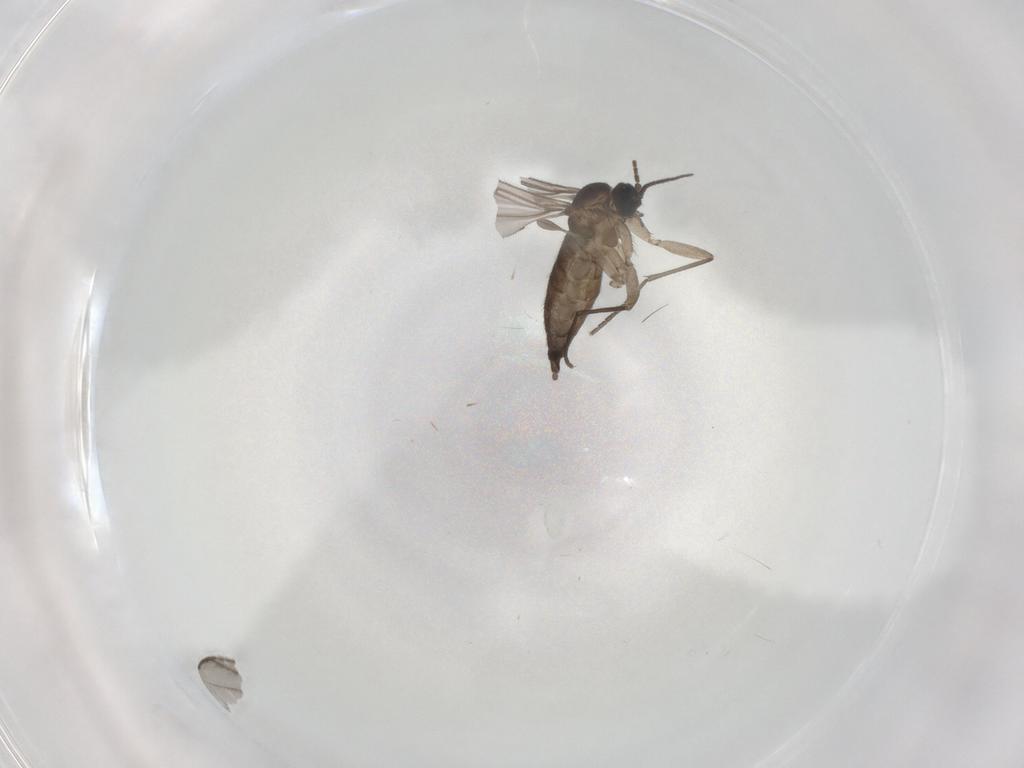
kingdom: Animalia
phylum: Arthropoda
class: Insecta
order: Diptera
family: Sciaridae
